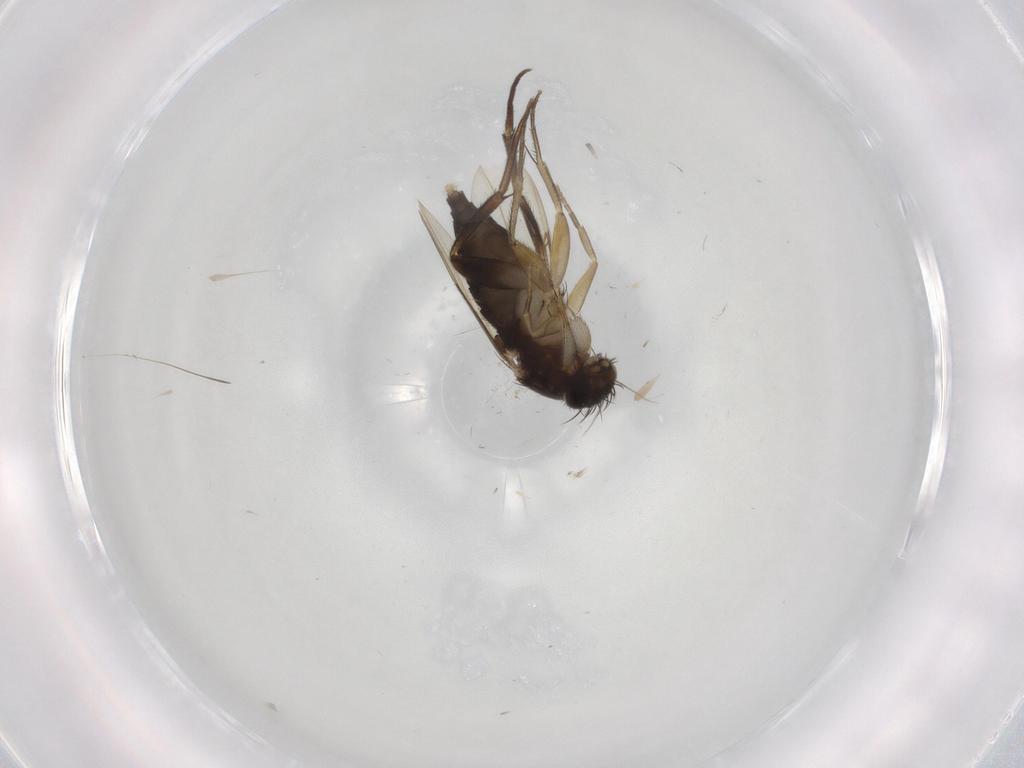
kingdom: Animalia
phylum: Arthropoda
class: Insecta
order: Diptera
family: Phoridae
